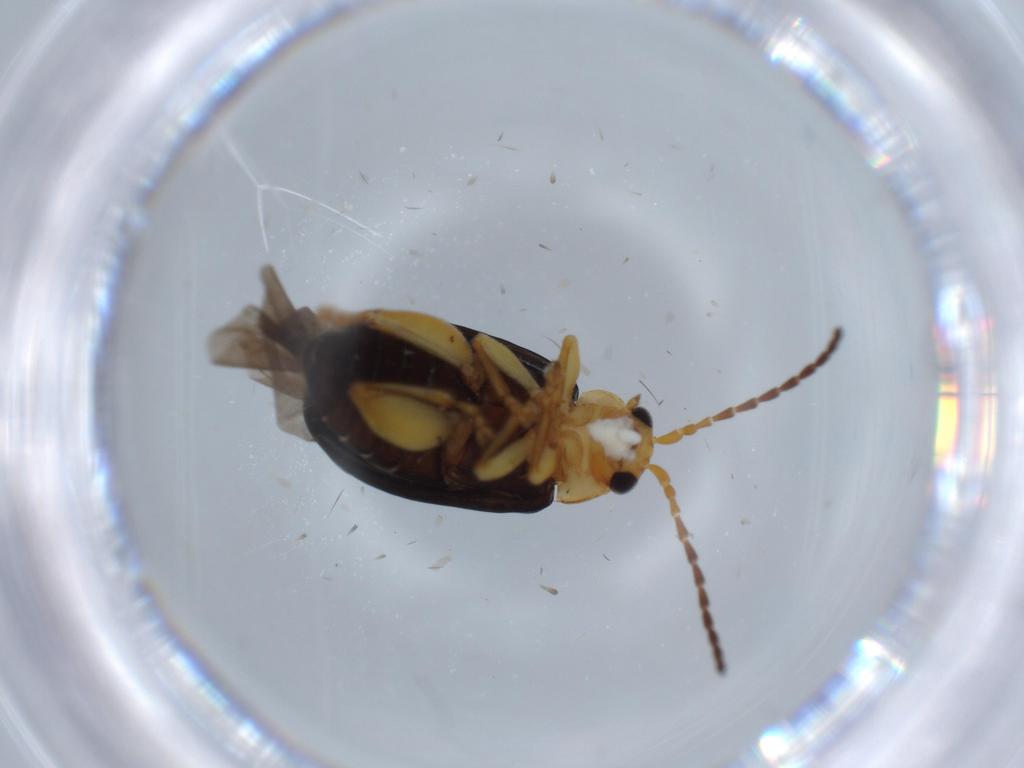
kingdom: Animalia
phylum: Arthropoda
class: Insecta
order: Coleoptera
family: Chrysomelidae
